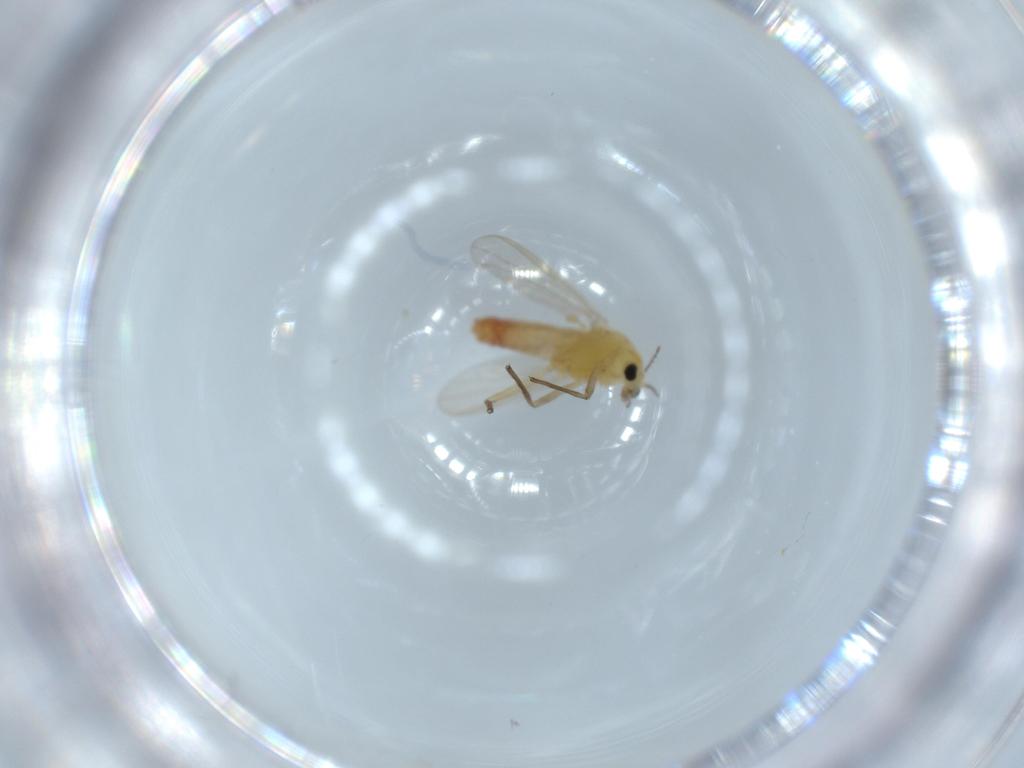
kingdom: Animalia
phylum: Arthropoda
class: Insecta
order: Diptera
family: Chironomidae
